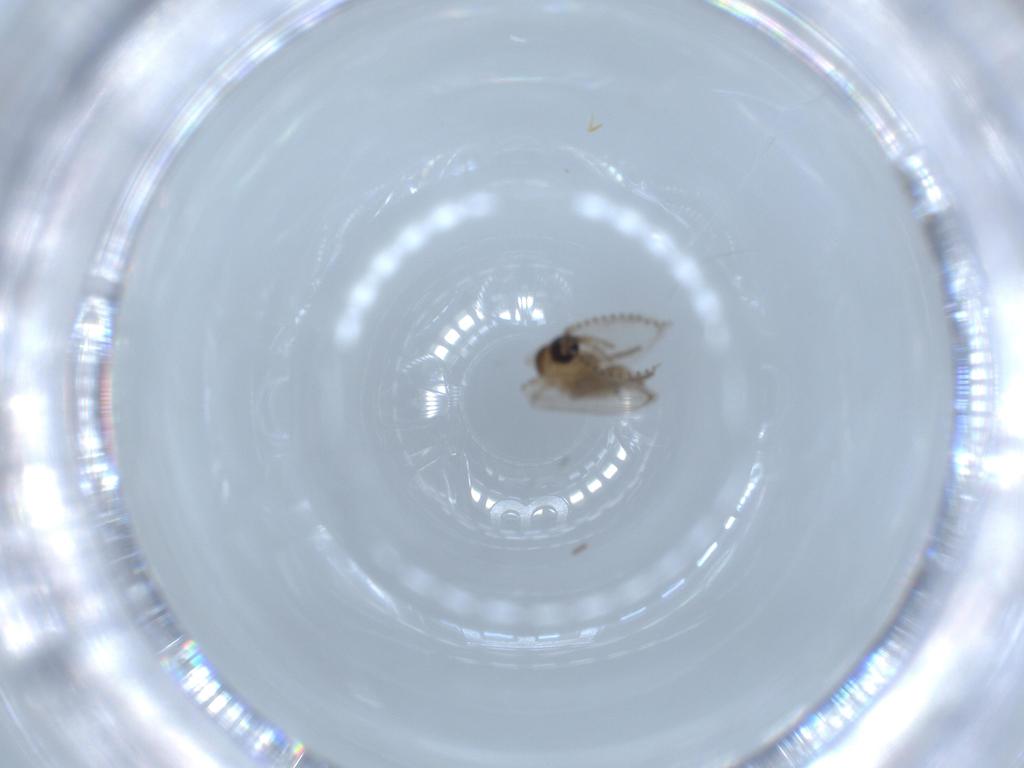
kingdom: Animalia
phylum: Arthropoda
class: Insecta
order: Diptera
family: Psychodidae
